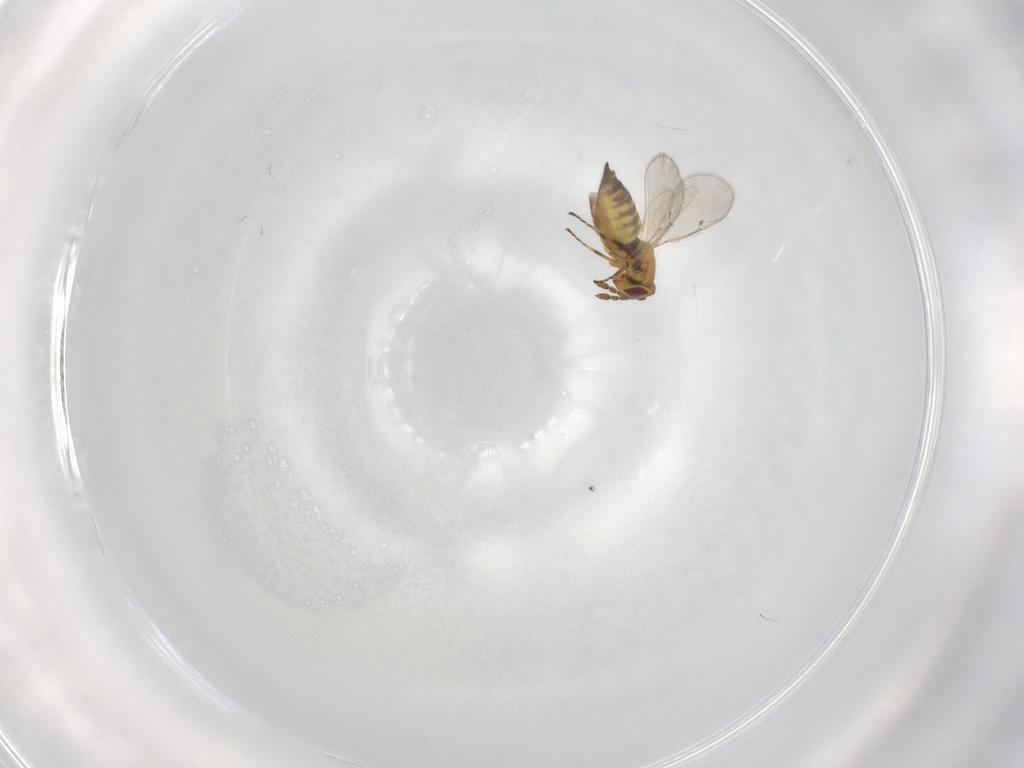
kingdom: Animalia
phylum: Arthropoda
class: Insecta
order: Hymenoptera
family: Eulophidae
